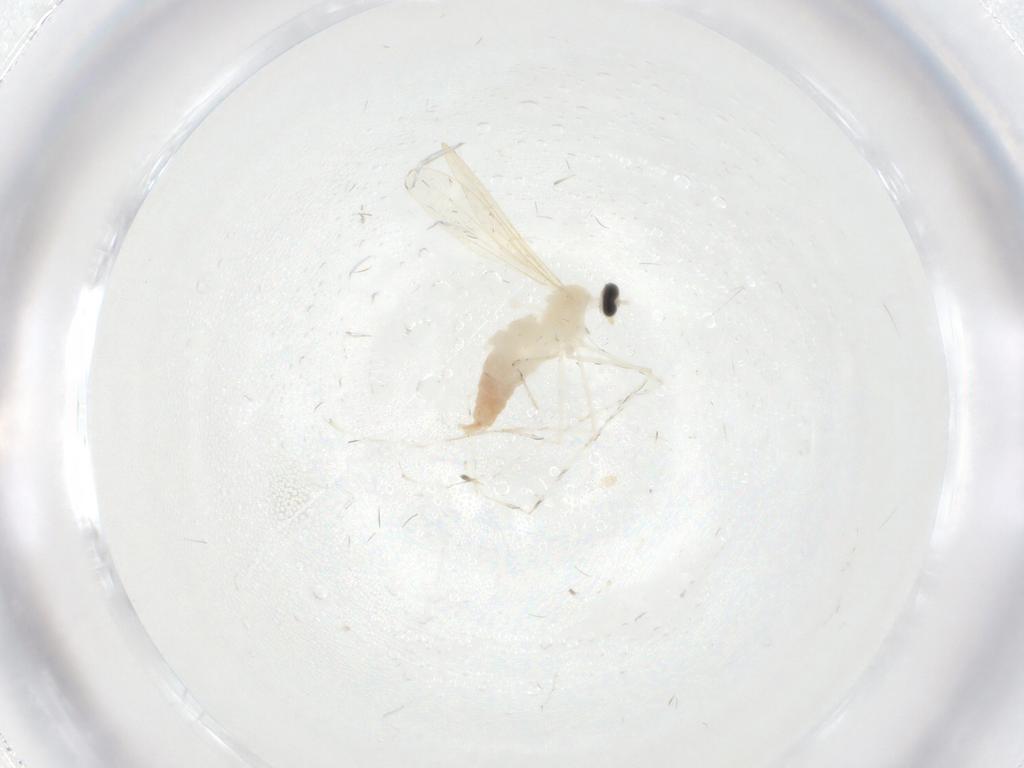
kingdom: Animalia
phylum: Arthropoda
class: Insecta
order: Diptera
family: Cecidomyiidae
